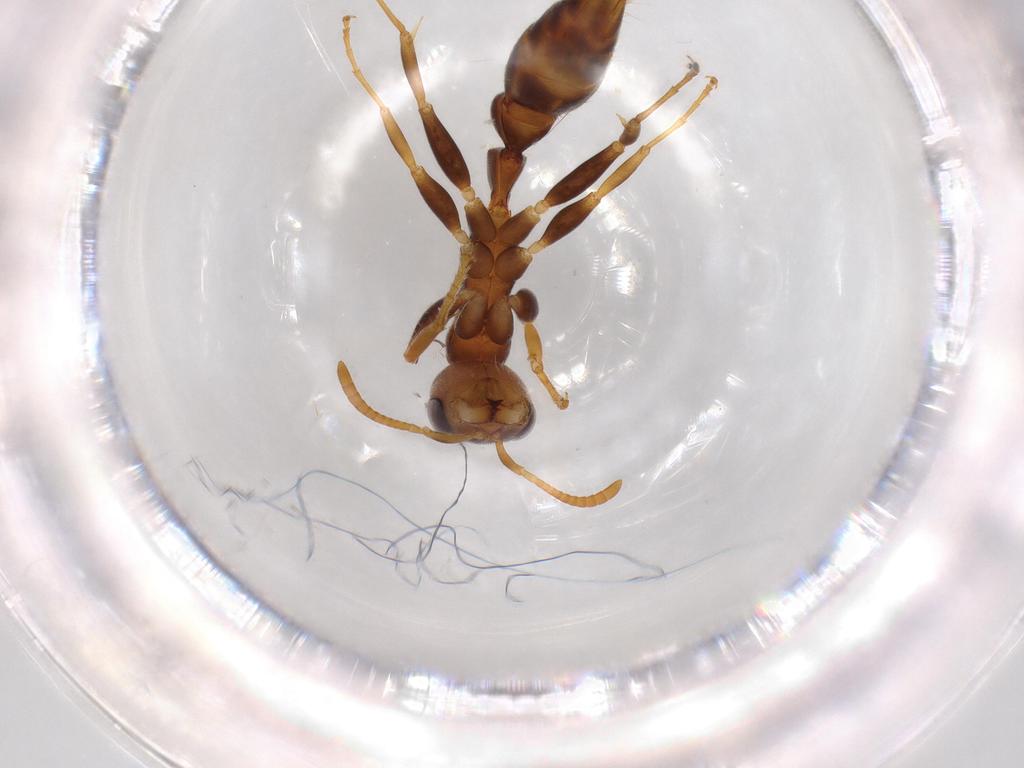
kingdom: Animalia
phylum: Arthropoda
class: Insecta
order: Hymenoptera
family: Formicidae
